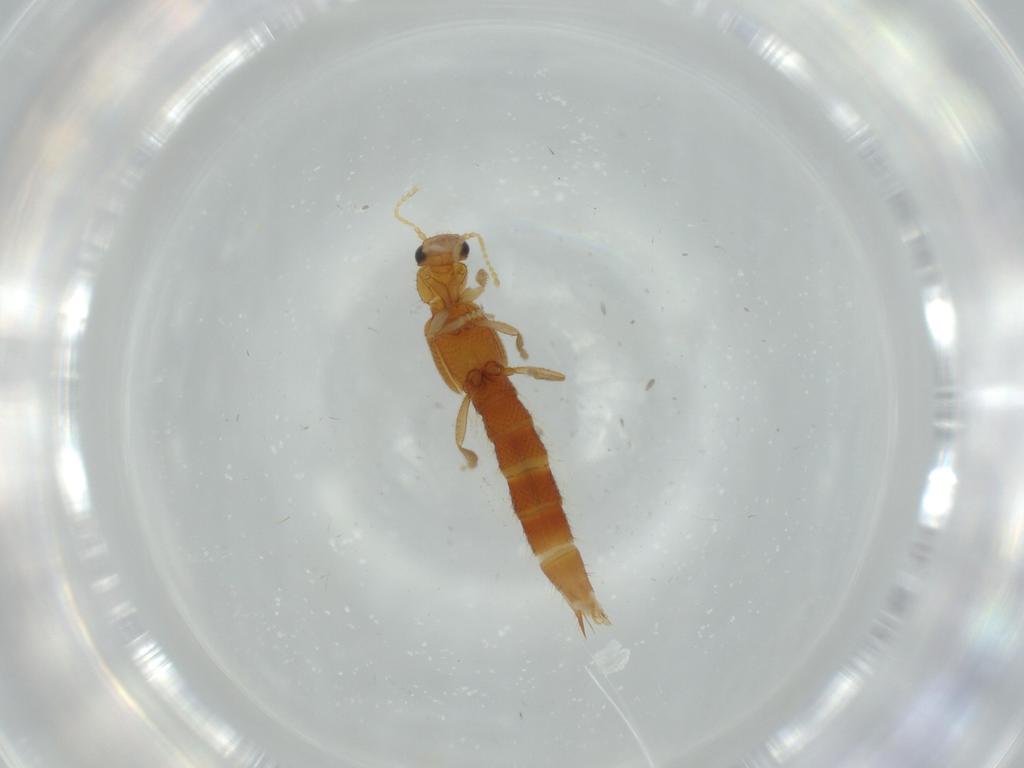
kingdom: Animalia
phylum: Arthropoda
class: Insecta
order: Coleoptera
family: Staphylinidae
